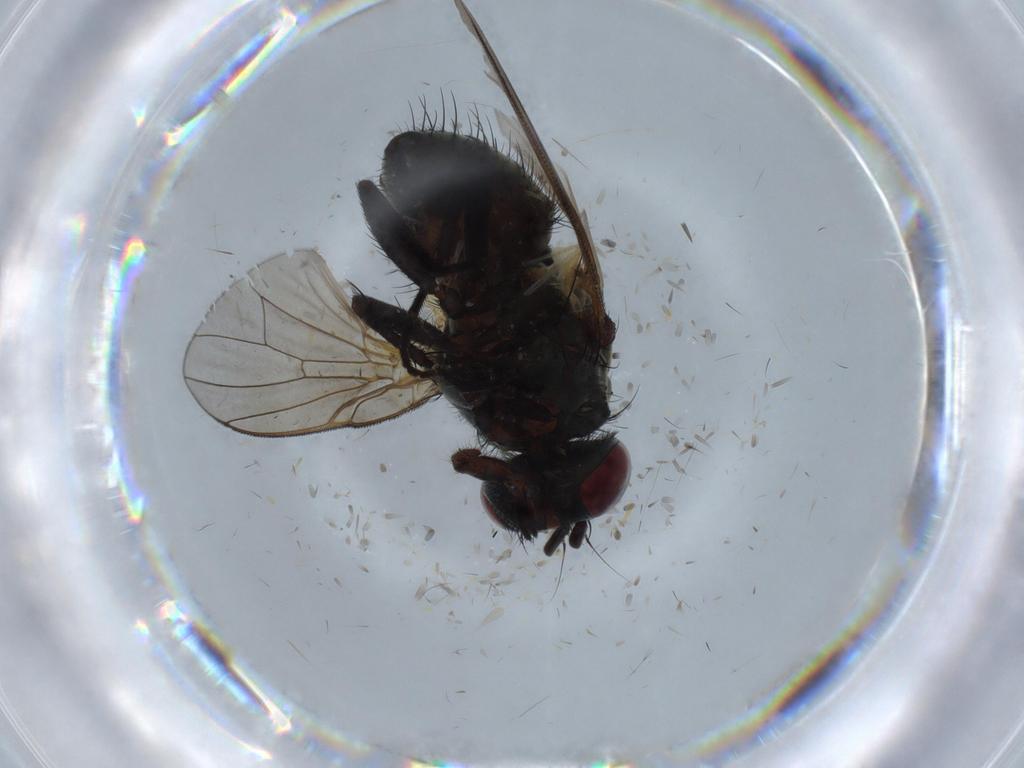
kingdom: Animalia
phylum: Arthropoda
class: Insecta
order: Diptera
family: Muscidae
